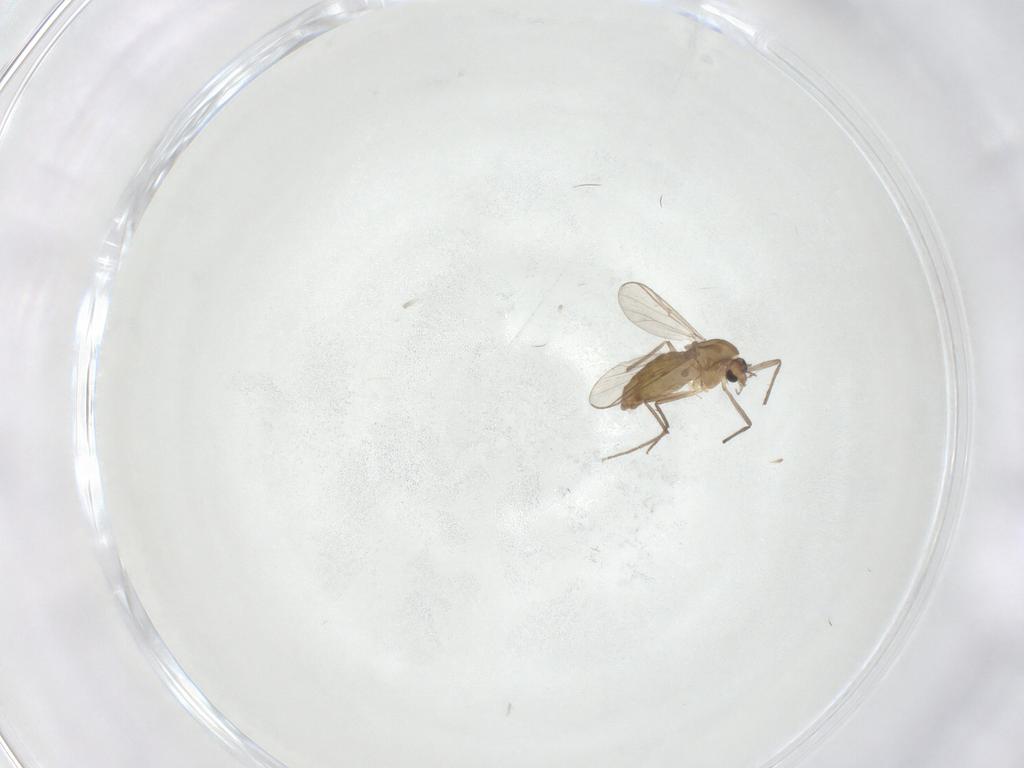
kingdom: Animalia
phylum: Arthropoda
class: Insecta
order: Diptera
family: Chironomidae
